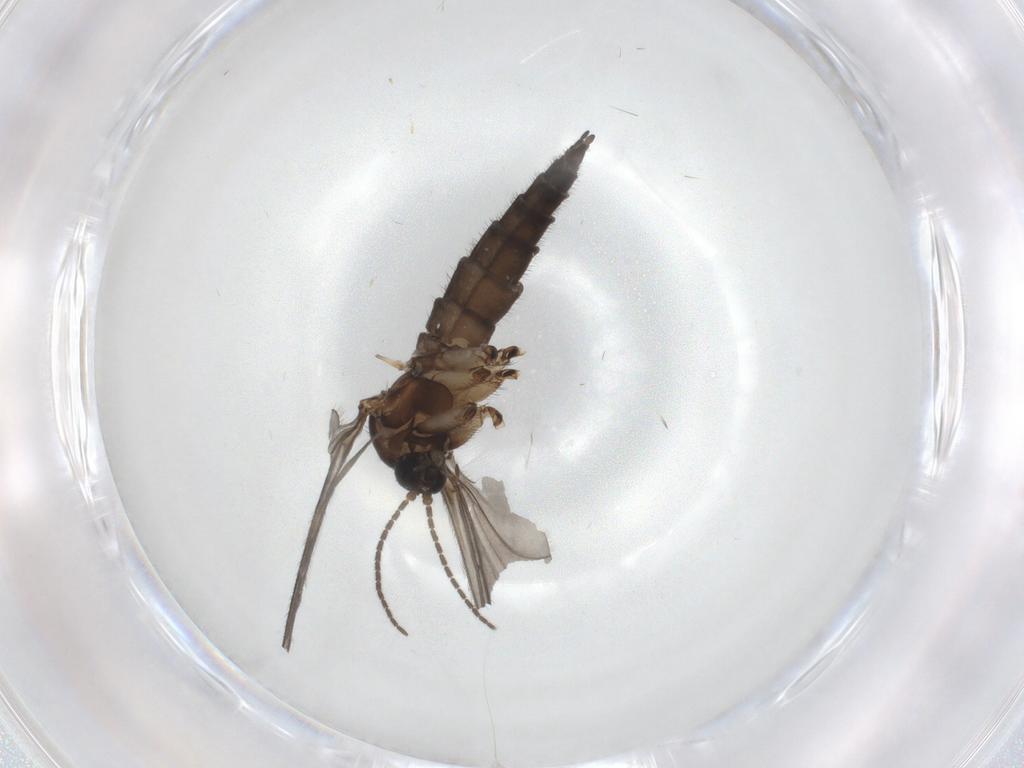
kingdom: Animalia
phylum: Arthropoda
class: Insecta
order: Diptera
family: Sciaridae
